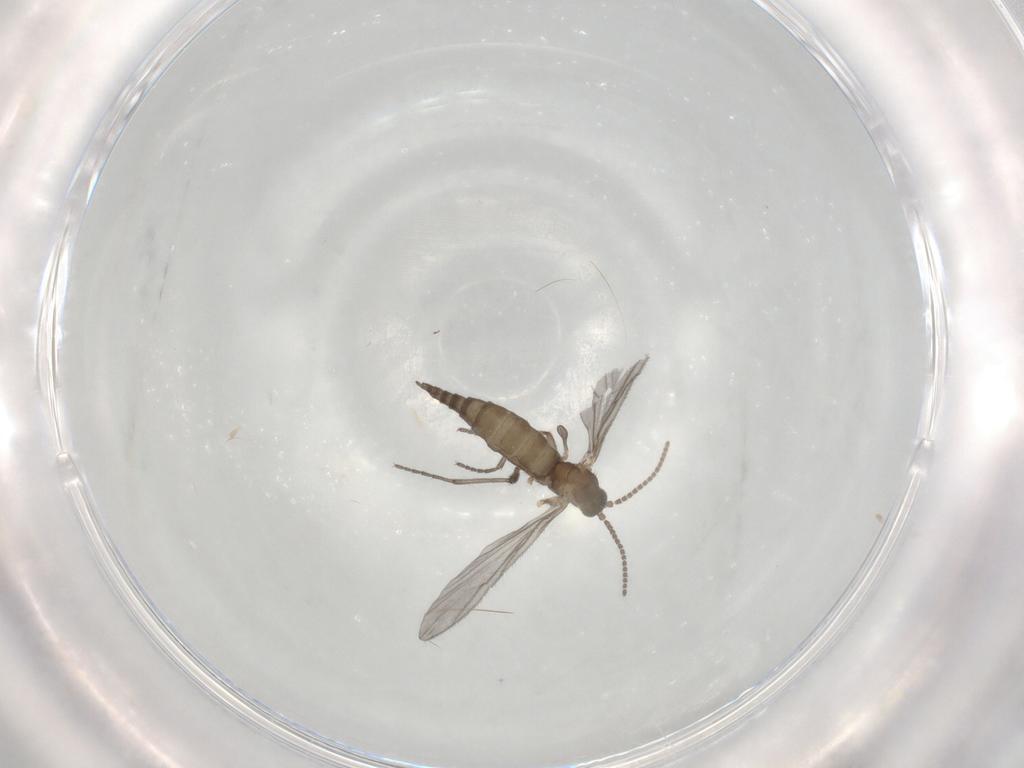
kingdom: Animalia
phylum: Arthropoda
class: Insecta
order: Diptera
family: Sciaridae
